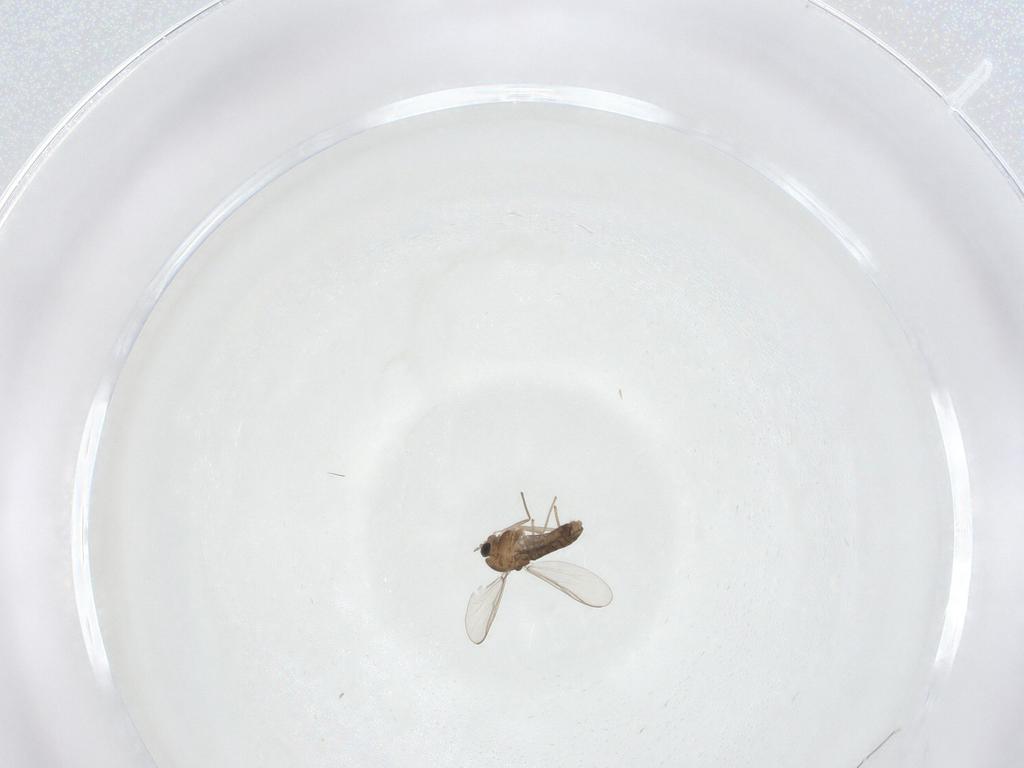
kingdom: Animalia
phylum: Arthropoda
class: Insecta
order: Diptera
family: Chironomidae
